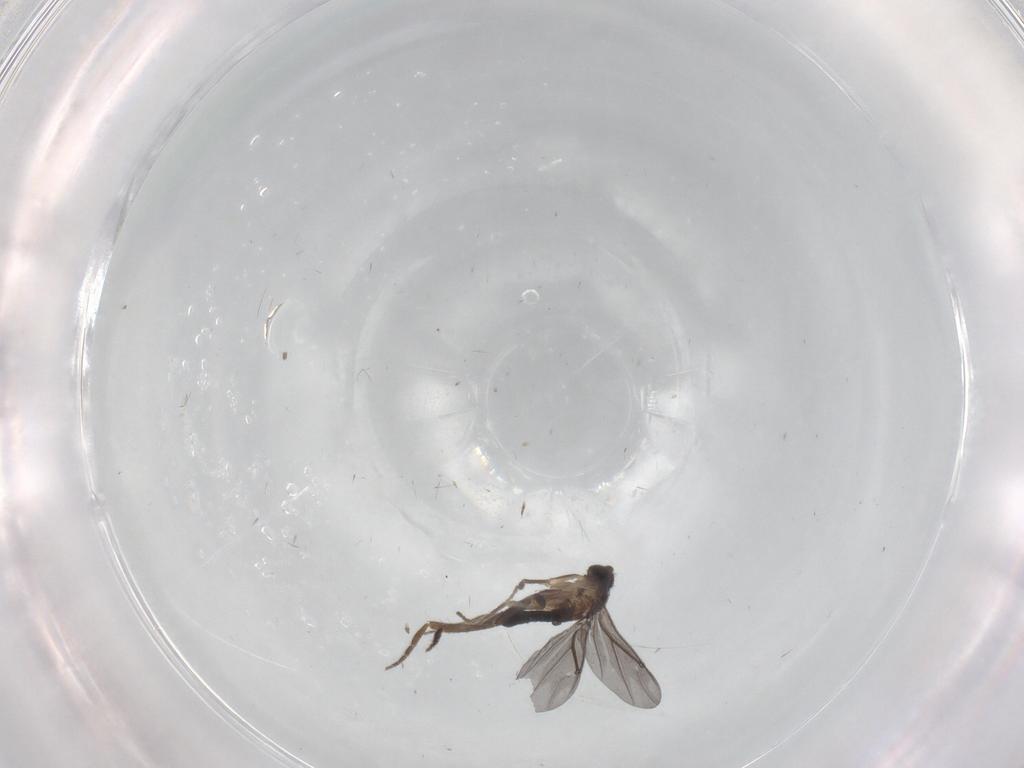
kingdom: Animalia
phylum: Arthropoda
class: Insecta
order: Diptera
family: Phoridae
